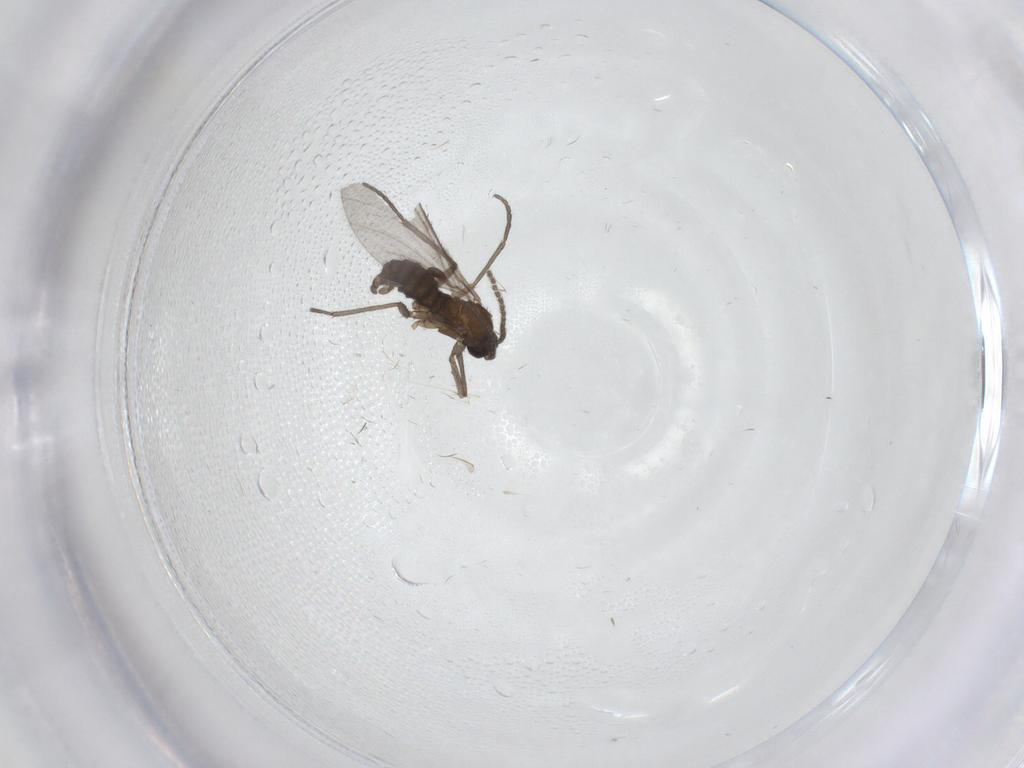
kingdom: Animalia
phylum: Arthropoda
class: Insecta
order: Diptera
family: Sciaridae
